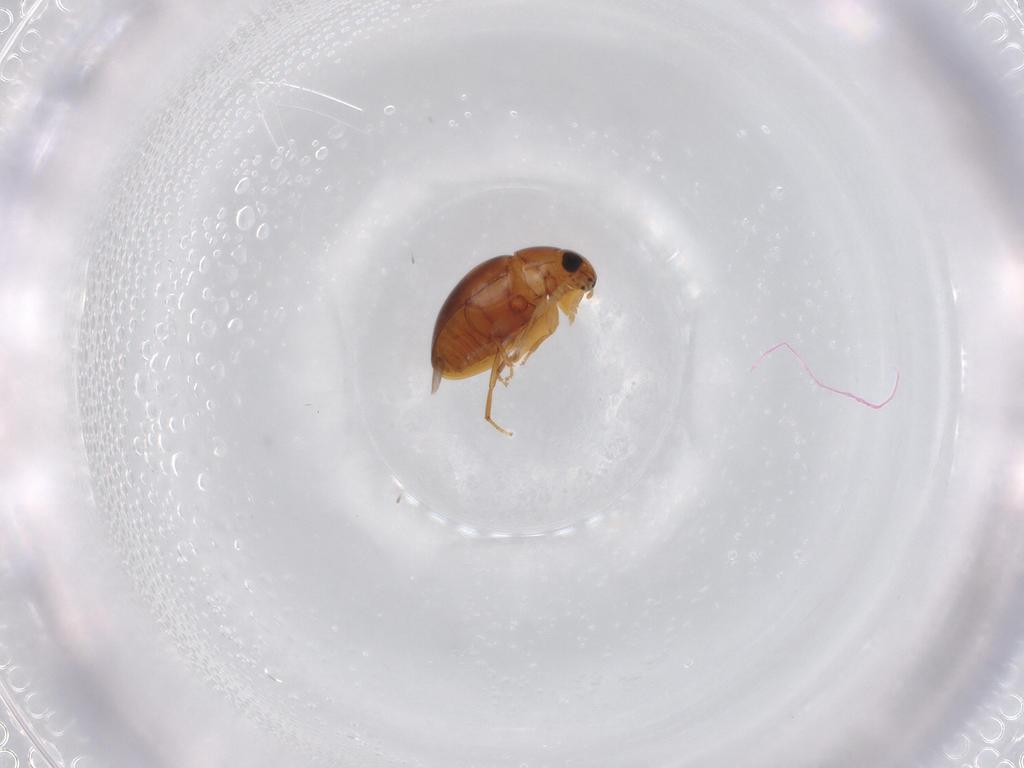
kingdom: Animalia
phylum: Arthropoda
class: Insecta
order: Coleoptera
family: Phalacridae
